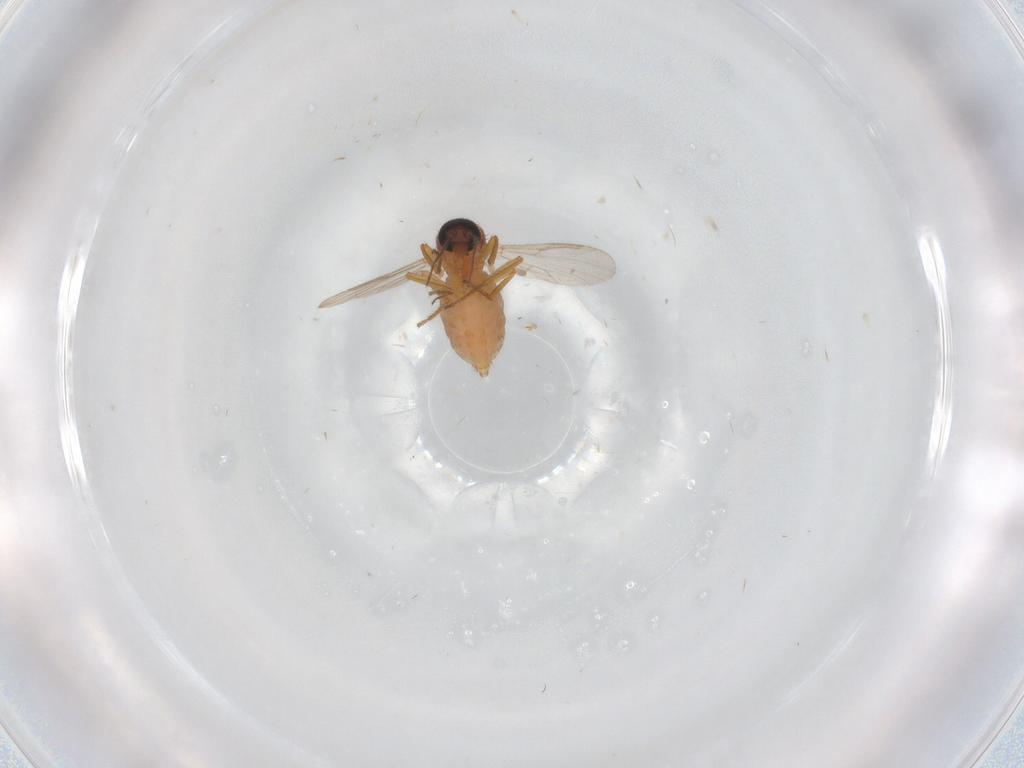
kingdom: Animalia
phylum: Arthropoda
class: Insecta
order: Diptera
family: Ceratopogonidae
